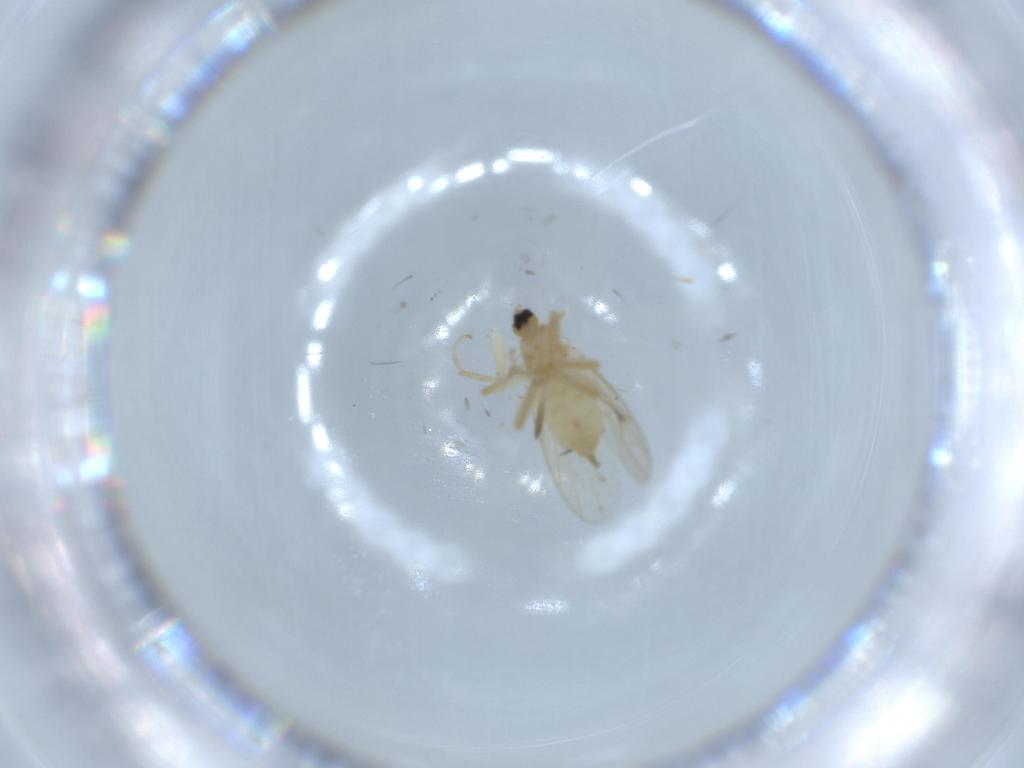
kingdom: Animalia
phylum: Arthropoda
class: Insecta
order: Diptera
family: Hybotidae
